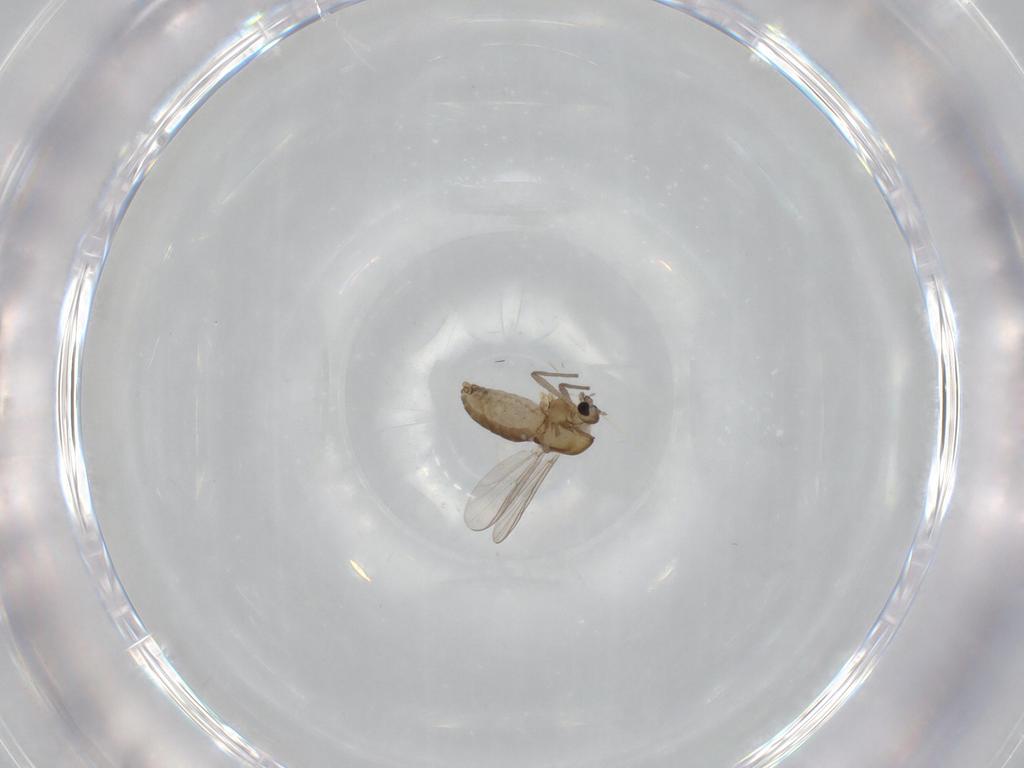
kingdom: Animalia
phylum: Arthropoda
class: Insecta
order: Diptera
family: Chironomidae
